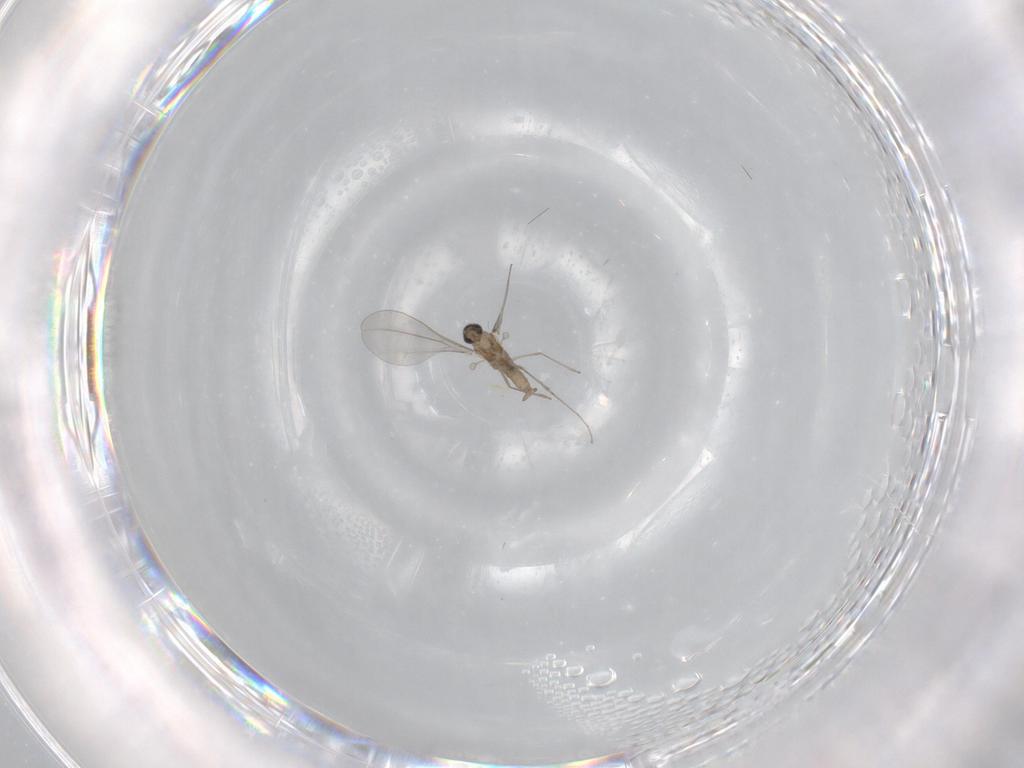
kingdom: Animalia
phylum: Arthropoda
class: Insecta
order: Diptera
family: Cecidomyiidae
